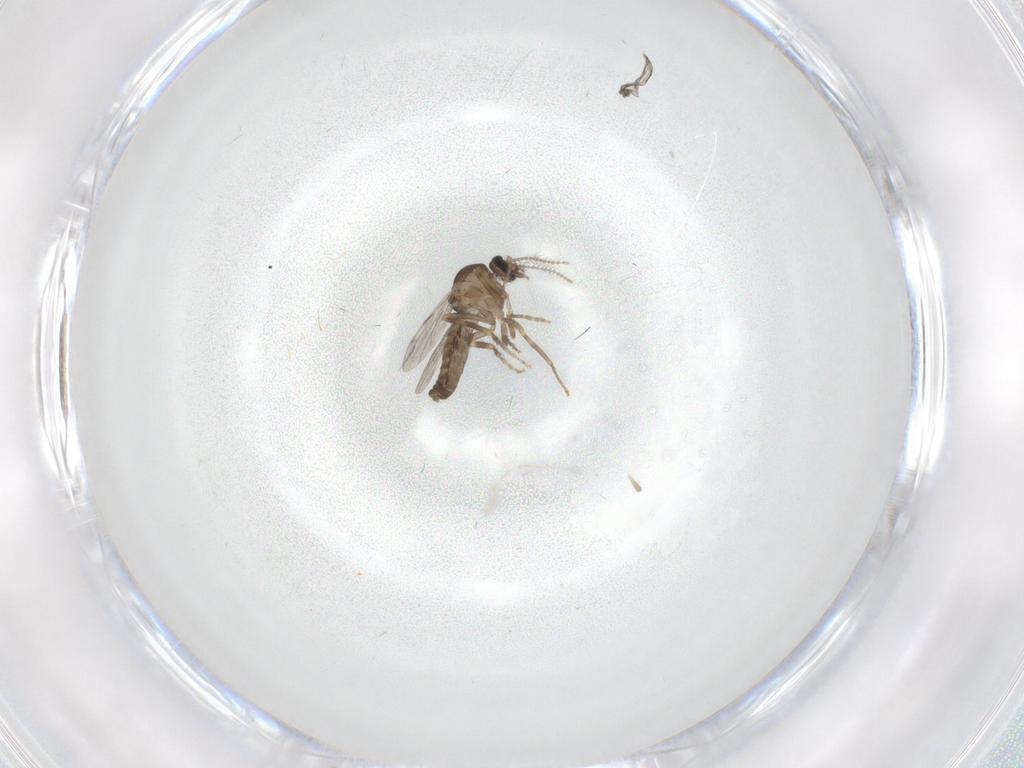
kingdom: Animalia
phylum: Arthropoda
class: Insecta
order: Diptera
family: Ceratopogonidae
